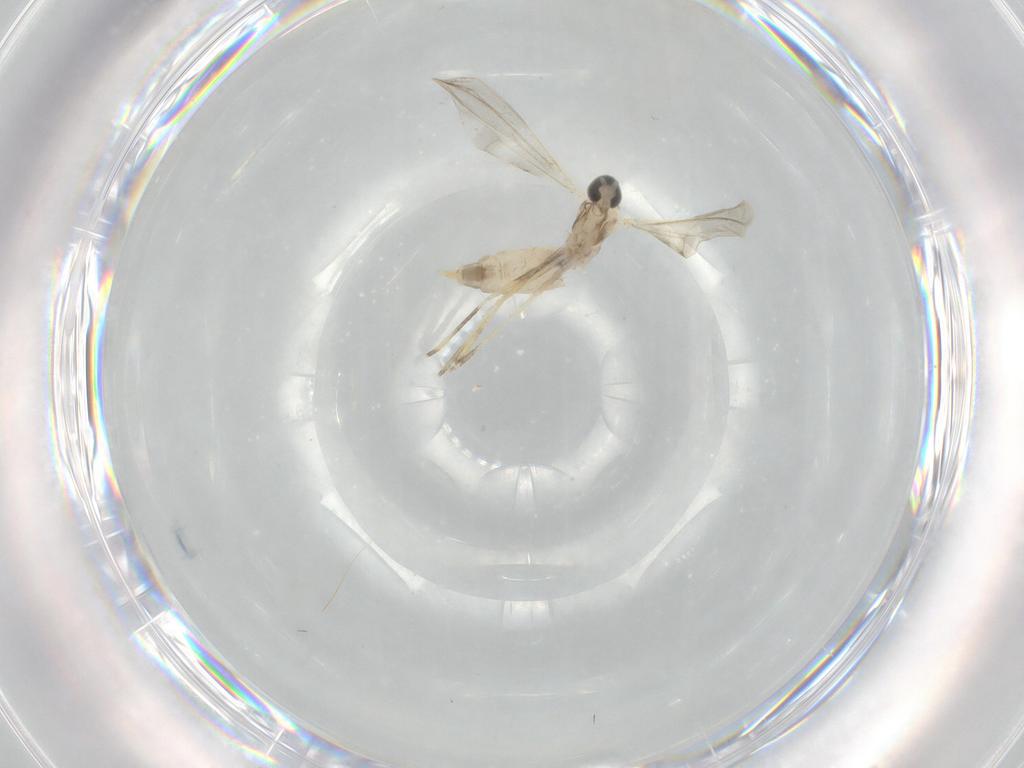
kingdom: Animalia
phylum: Arthropoda
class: Insecta
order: Diptera
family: Cecidomyiidae
